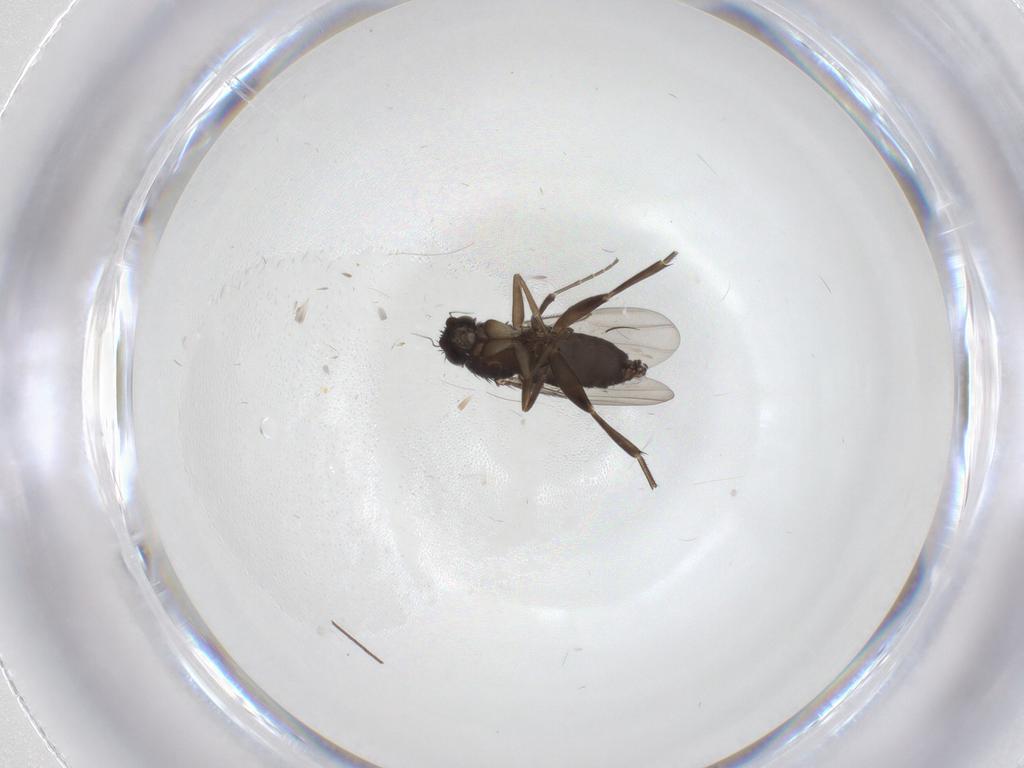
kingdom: Animalia
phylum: Arthropoda
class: Insecta
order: Diptera
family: Phoridae
